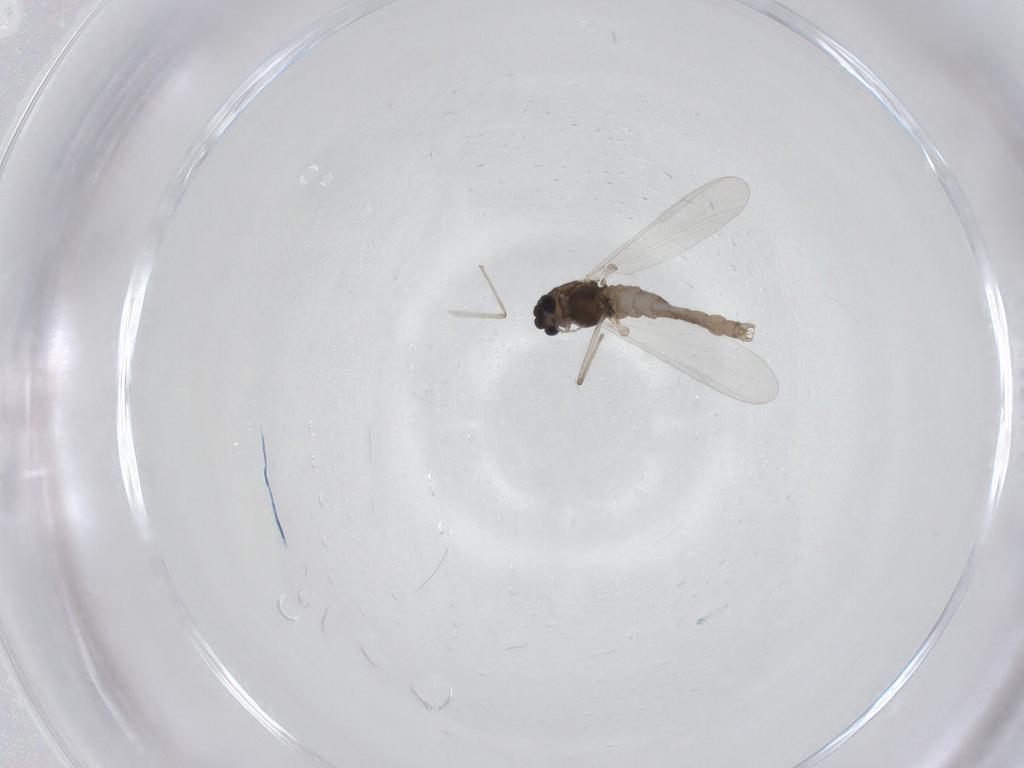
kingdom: Animalia
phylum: Arthropoda
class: Insecta
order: Diptera
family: Chironomidae
